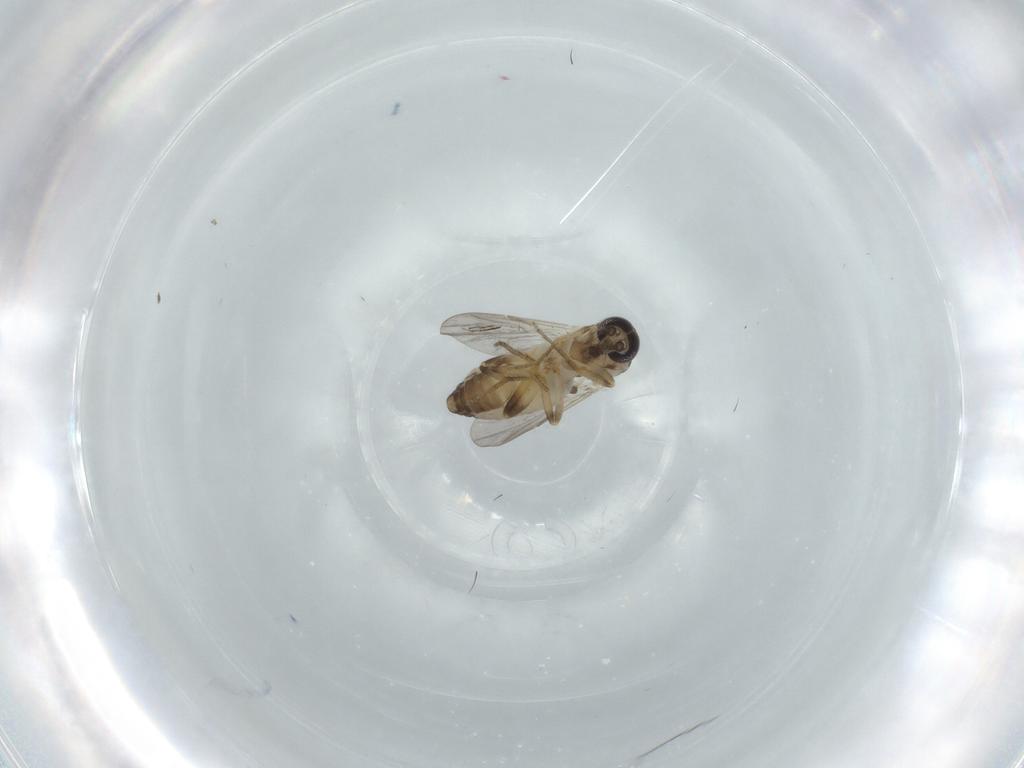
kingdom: Animalia
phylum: Arthropoda
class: Insecta
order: Diptera
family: Ceratopogonidae
